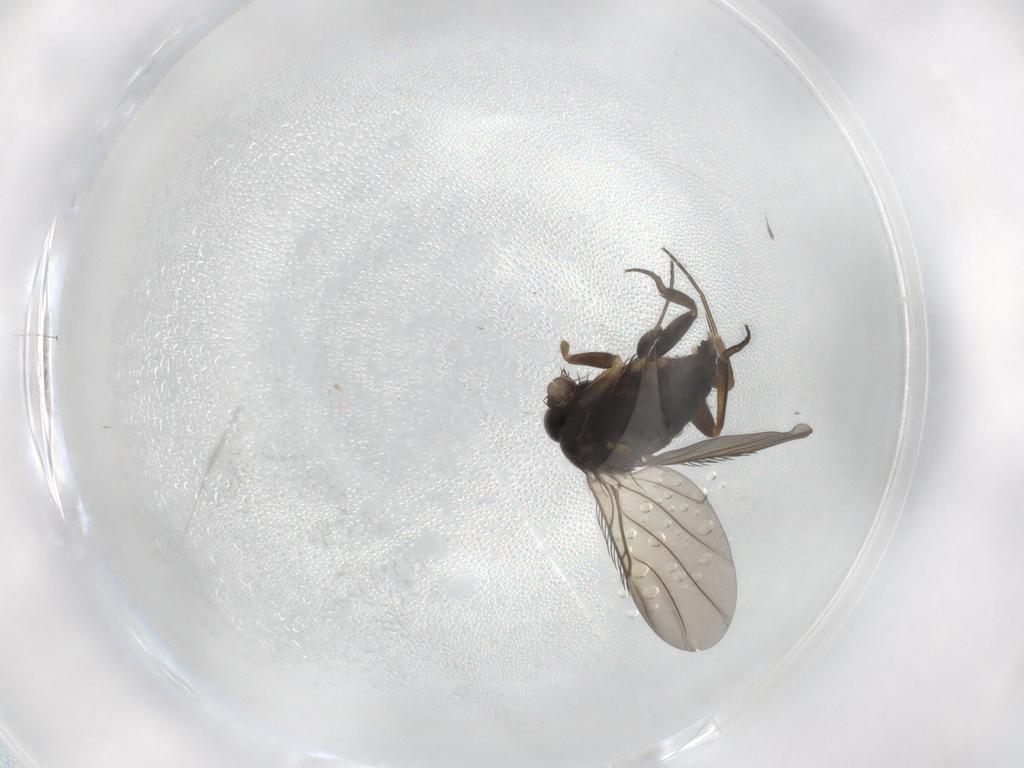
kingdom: Animalia
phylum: Arthropoda
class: Insecta
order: Diptera
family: Phoridae
